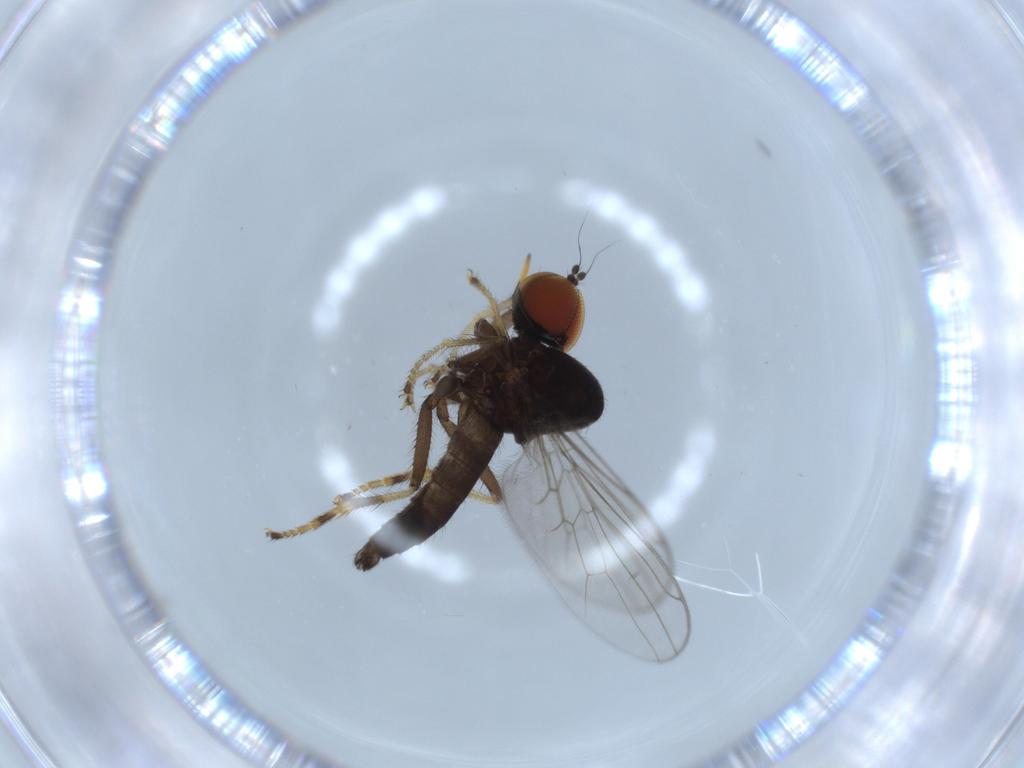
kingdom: Animalia
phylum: Arthropoda
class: Insecta
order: Diptera
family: Hybotidae
